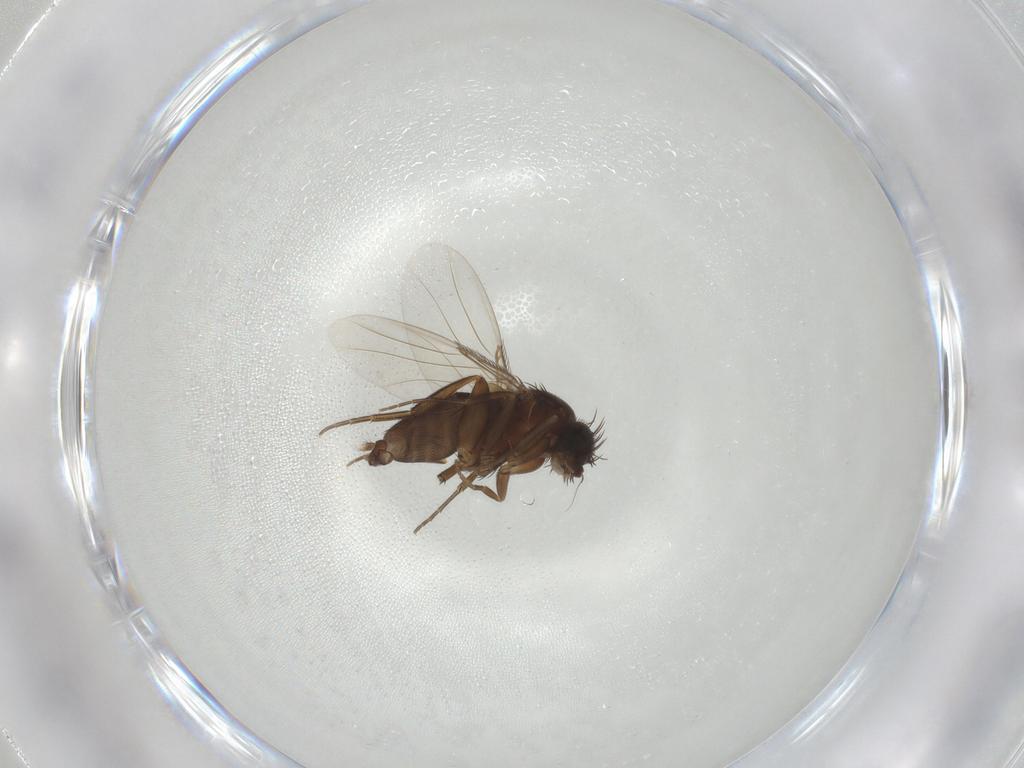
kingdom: Animalia
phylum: Arthropoda
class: Insecta
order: Diptera
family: Phoridae
